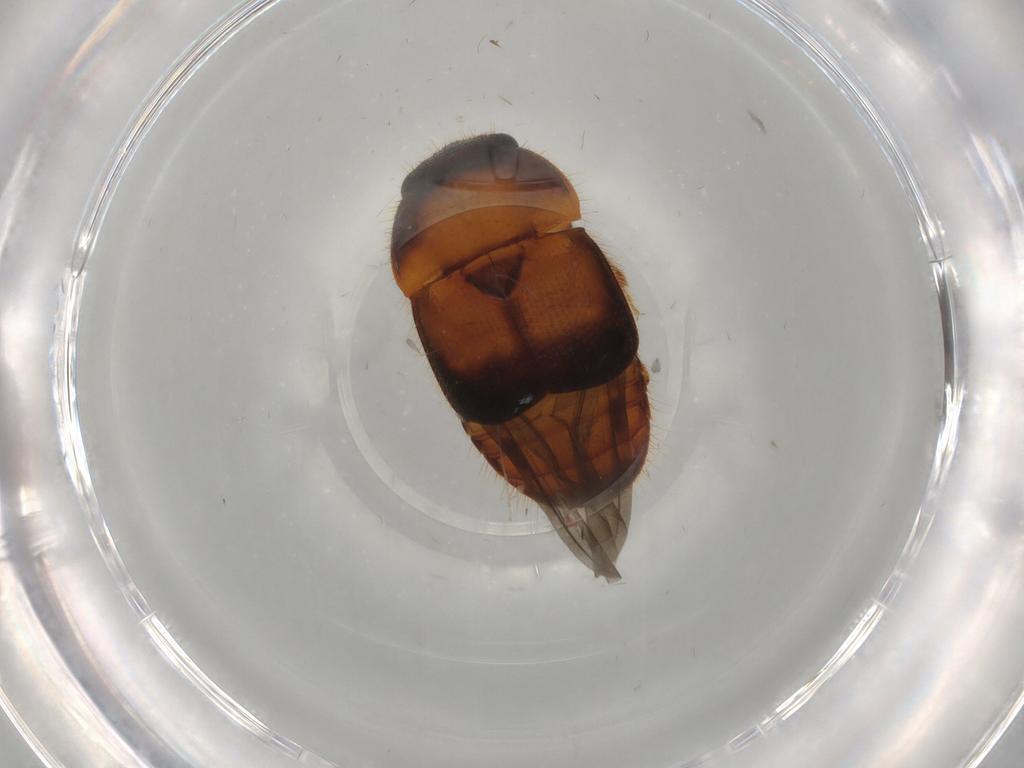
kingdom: Animalia
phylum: Arthropoda
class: Insecta
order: Coleoptera
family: Nitidulidae
